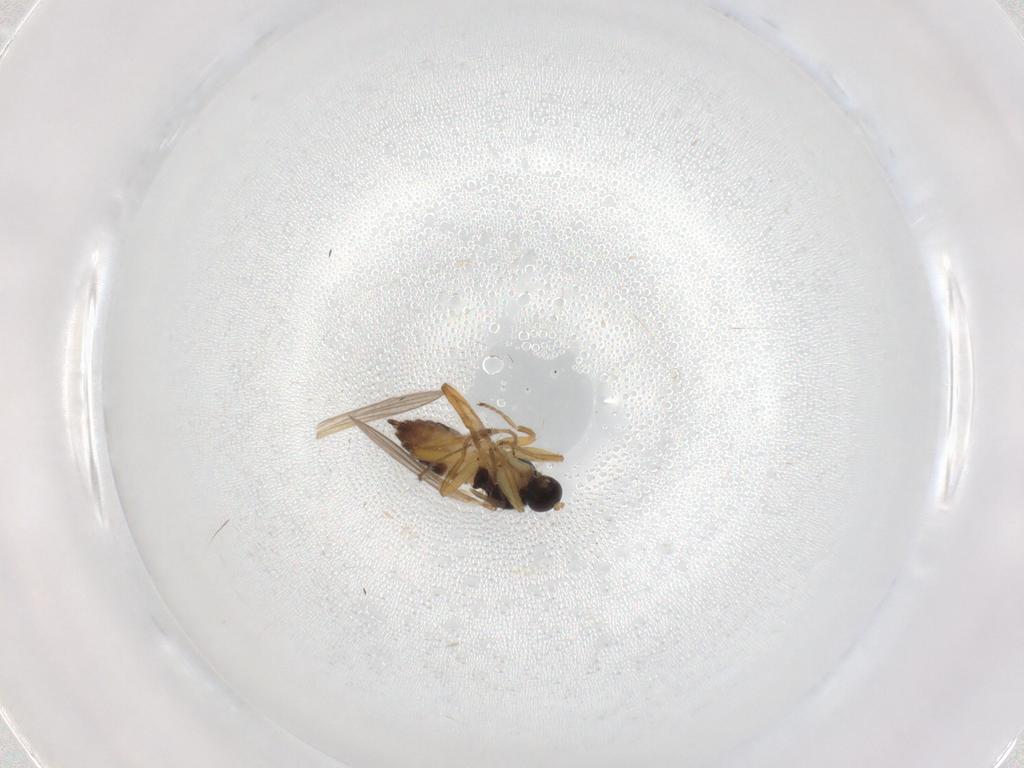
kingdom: Animalia
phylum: Arthropoda
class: Insecta
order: Diptera
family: Hybotidae
